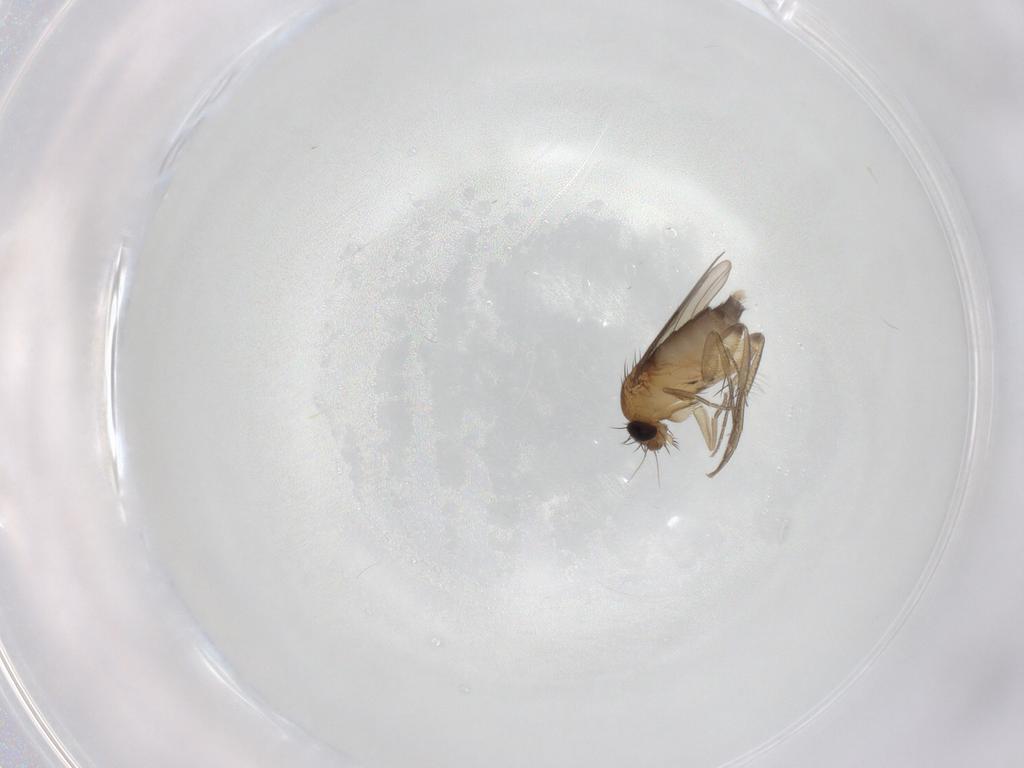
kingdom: Animalia
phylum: Arthropoda
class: Insecta
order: Diptera
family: Phoridae
